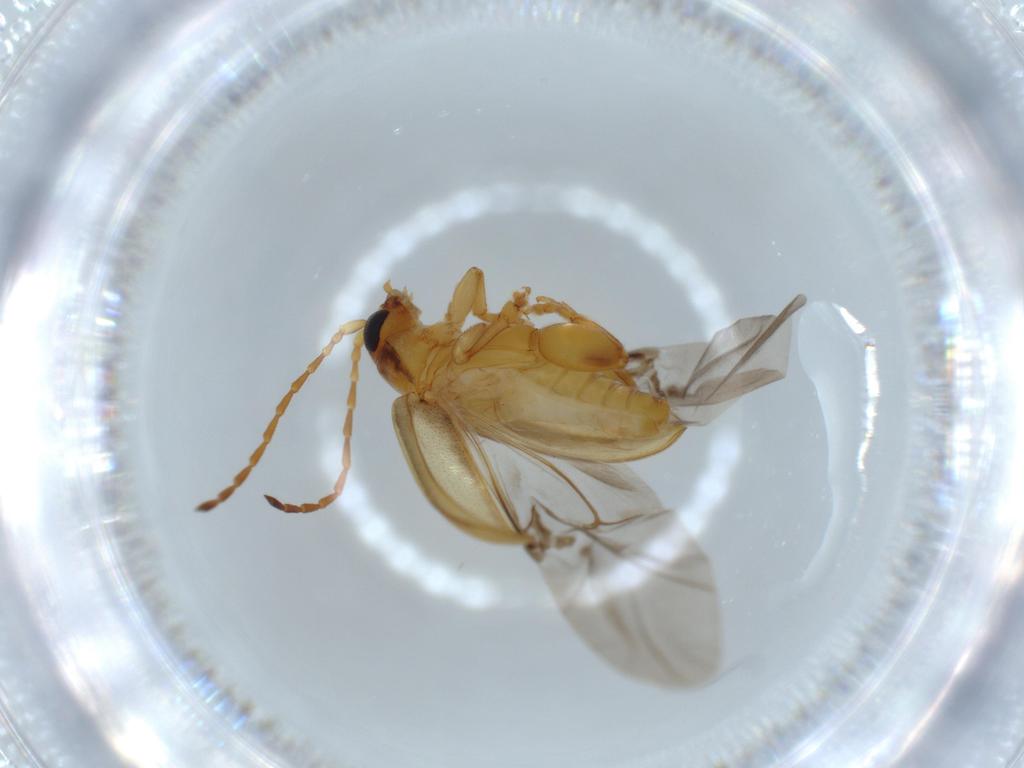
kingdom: Animalia
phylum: Arthropoda
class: Insecta
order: Coleoptera
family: Chrysomelidae
